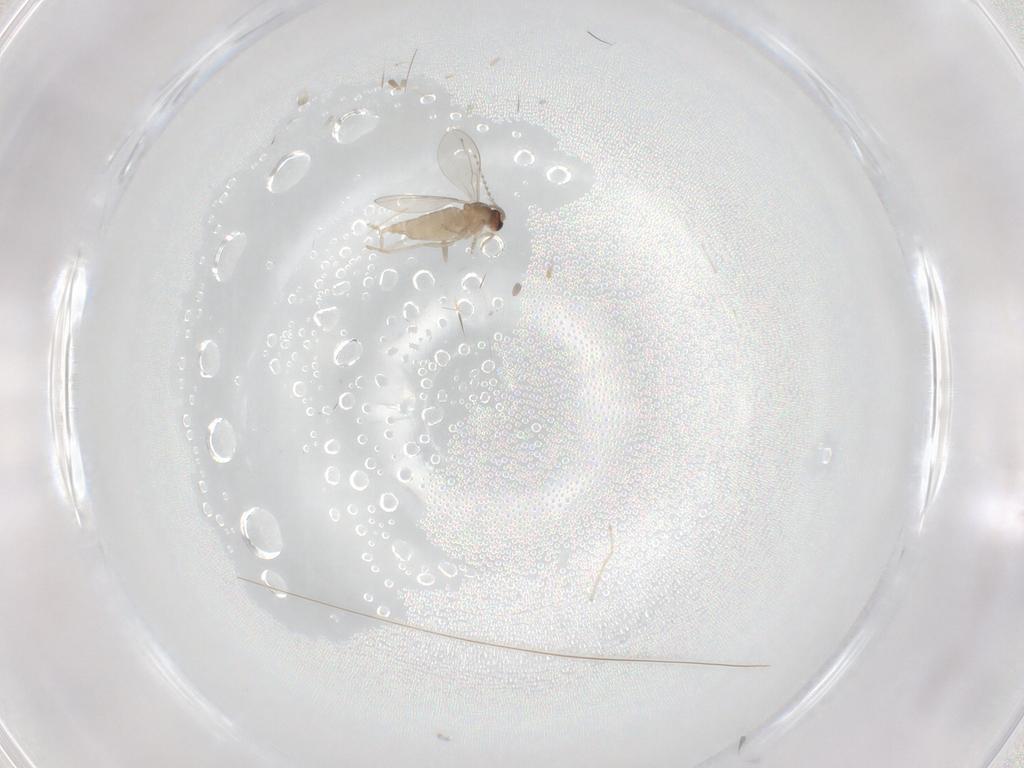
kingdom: Animalia
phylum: Arthropoda
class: Insecta
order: Diptera
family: Cecidomyiidae
